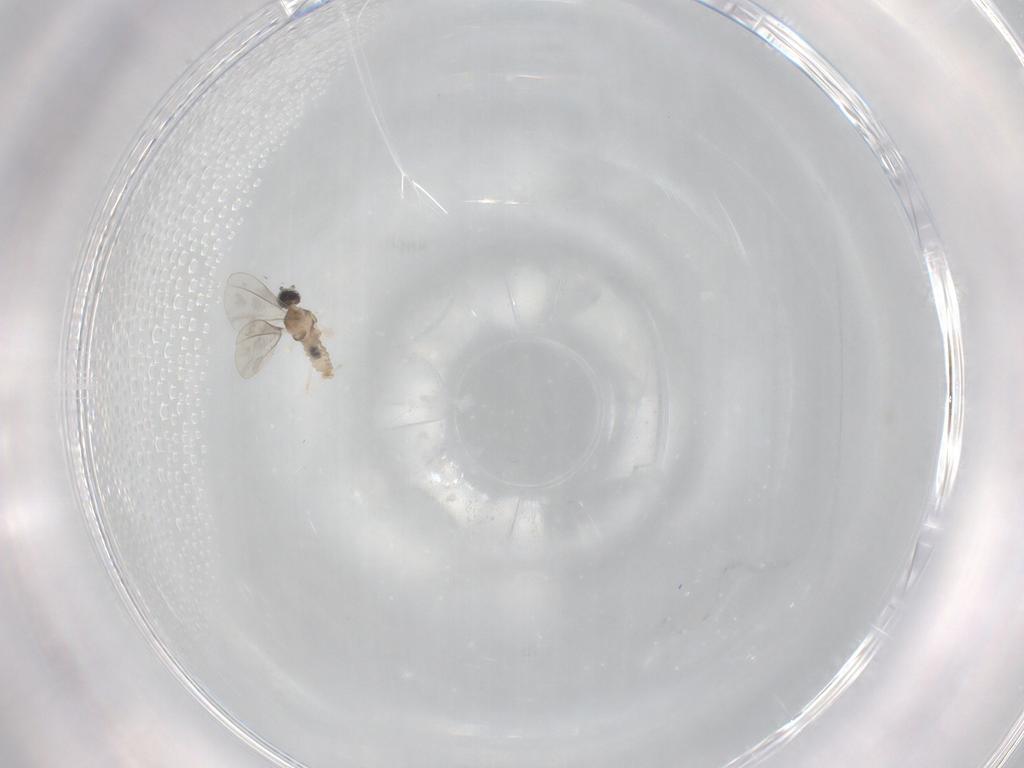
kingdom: Animalia
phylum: Arthropoda
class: Insecta
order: Diptera
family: Cecidomyiidae
